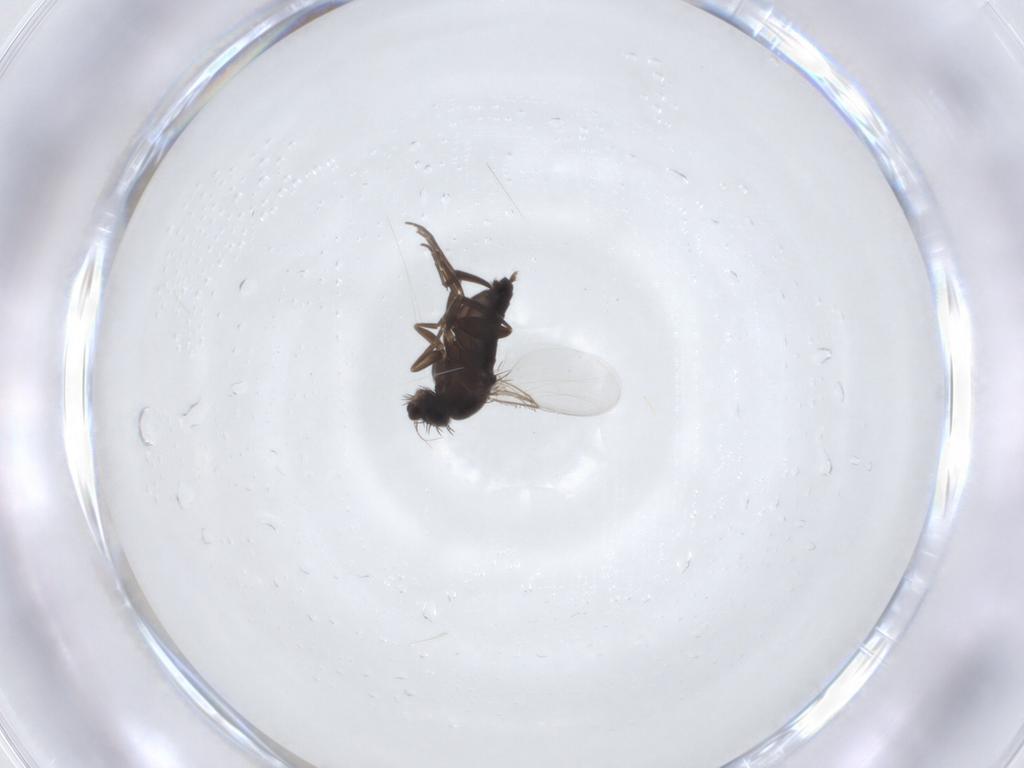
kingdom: Animalia
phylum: Arthropoda
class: Insecta
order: Diptera
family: Phoridae
